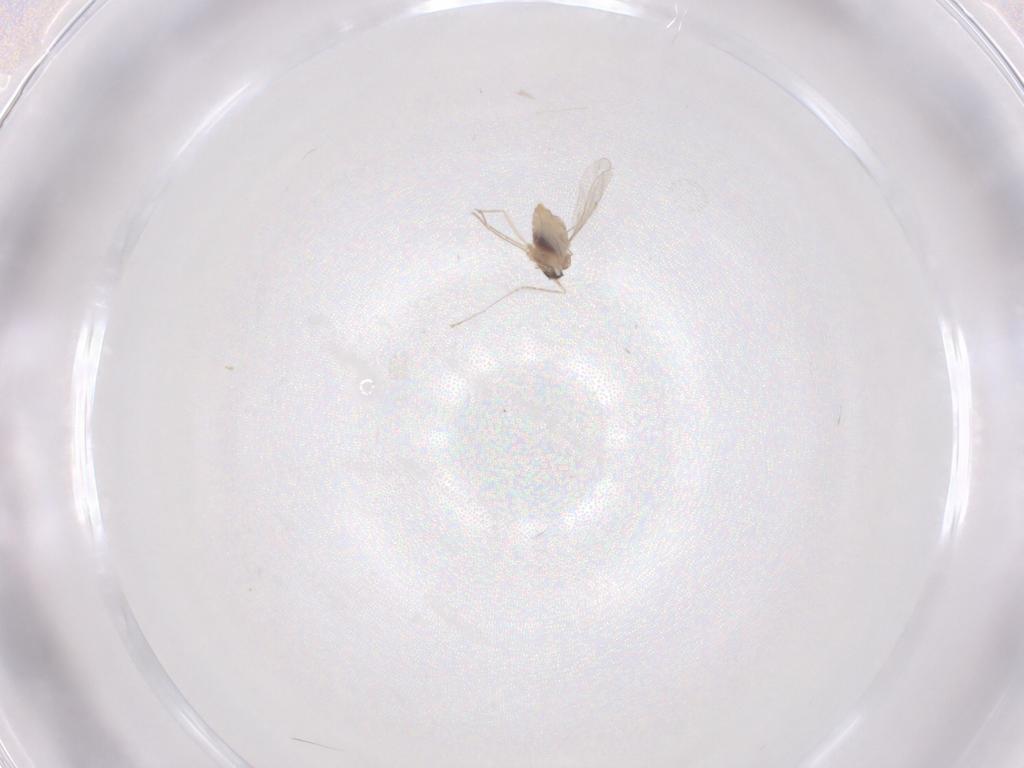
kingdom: Animalia
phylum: Arthropoda
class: Insecta
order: Diptera
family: Cecidomyiidae
